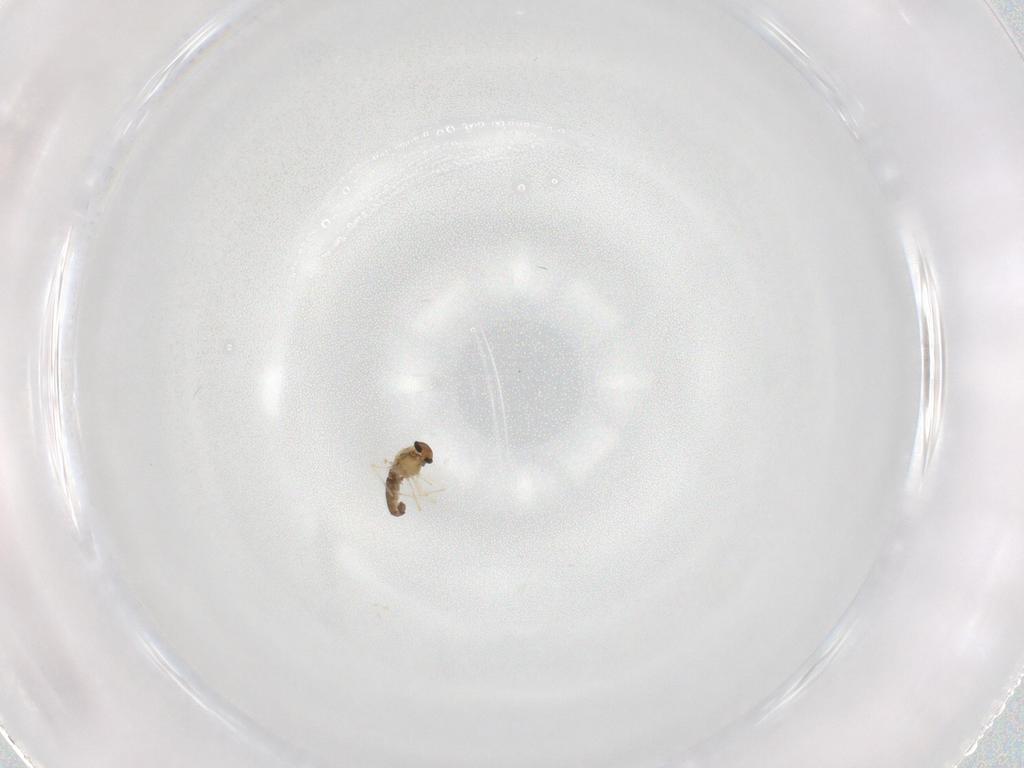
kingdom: Animalia
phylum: Arthropoda
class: Insecta
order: Diptera
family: Chironomidae
